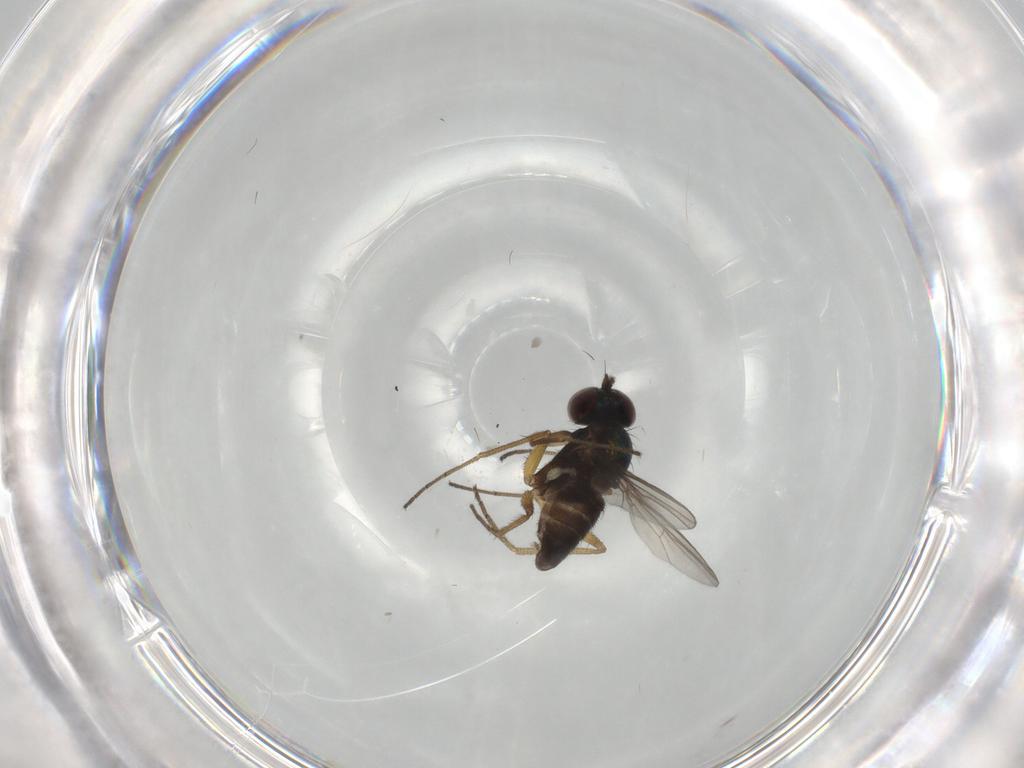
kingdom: Animalia
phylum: Arthropoda
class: Insecta
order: Diptera
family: Dolichopodidae
